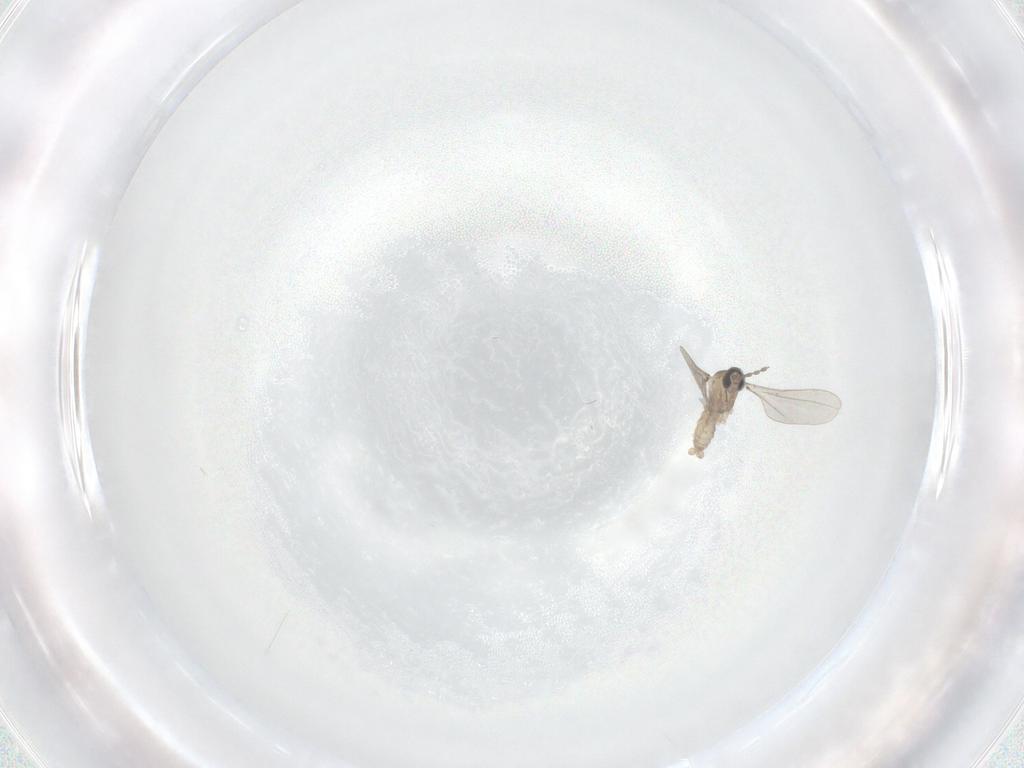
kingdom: Animalia
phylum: Arthropoda
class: Insecta
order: Diptera
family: Cecidomyiidae
